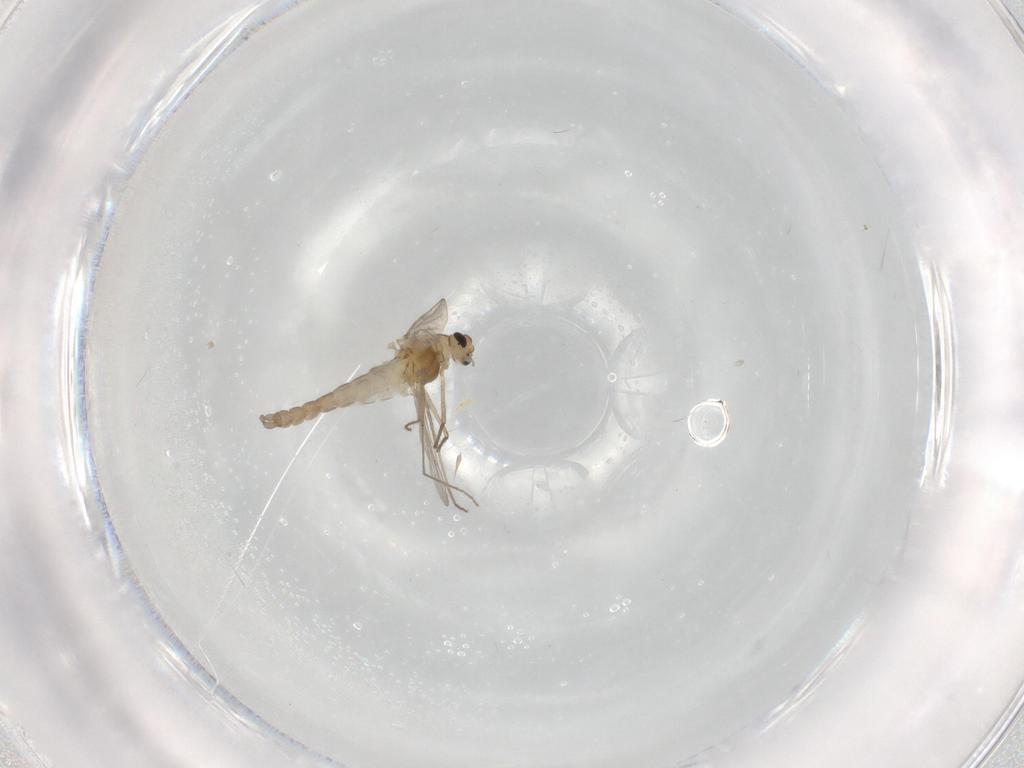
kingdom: Animalia
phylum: Arthropoda
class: Insecta
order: Diptera
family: Chironomidae
